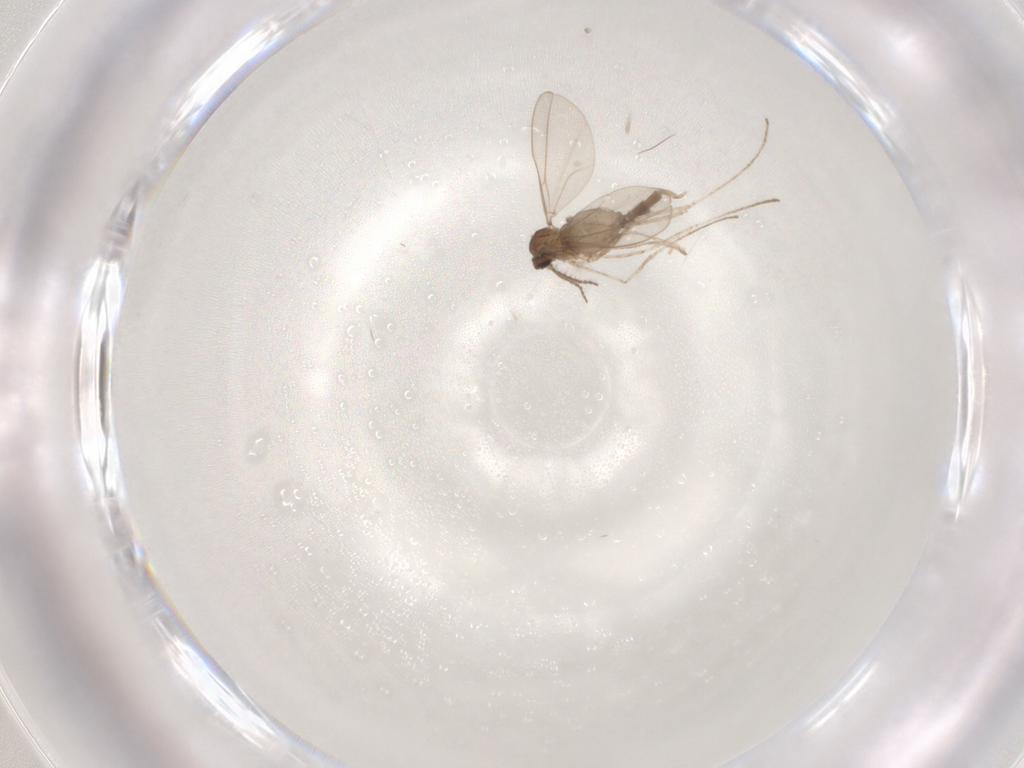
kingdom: Animalia
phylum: Arthropoda
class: Insecta
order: Diptera
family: Cecidomyiidae
